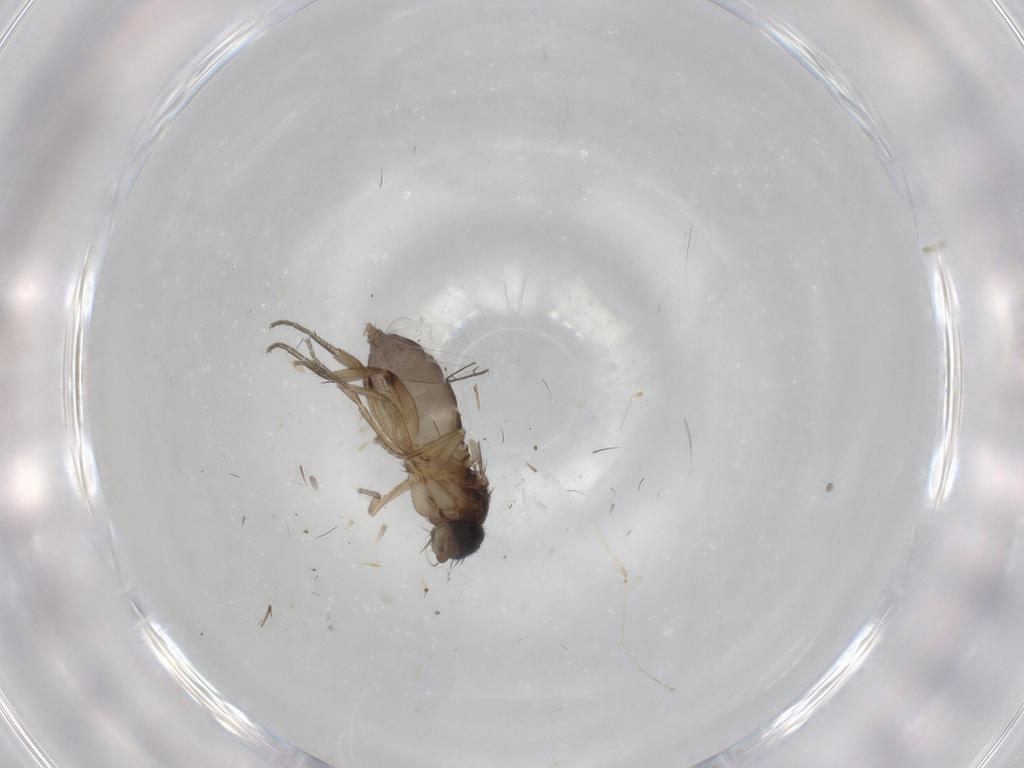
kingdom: Animalia
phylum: Arthropoda
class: Insecta
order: Diptera
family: Phoridae
